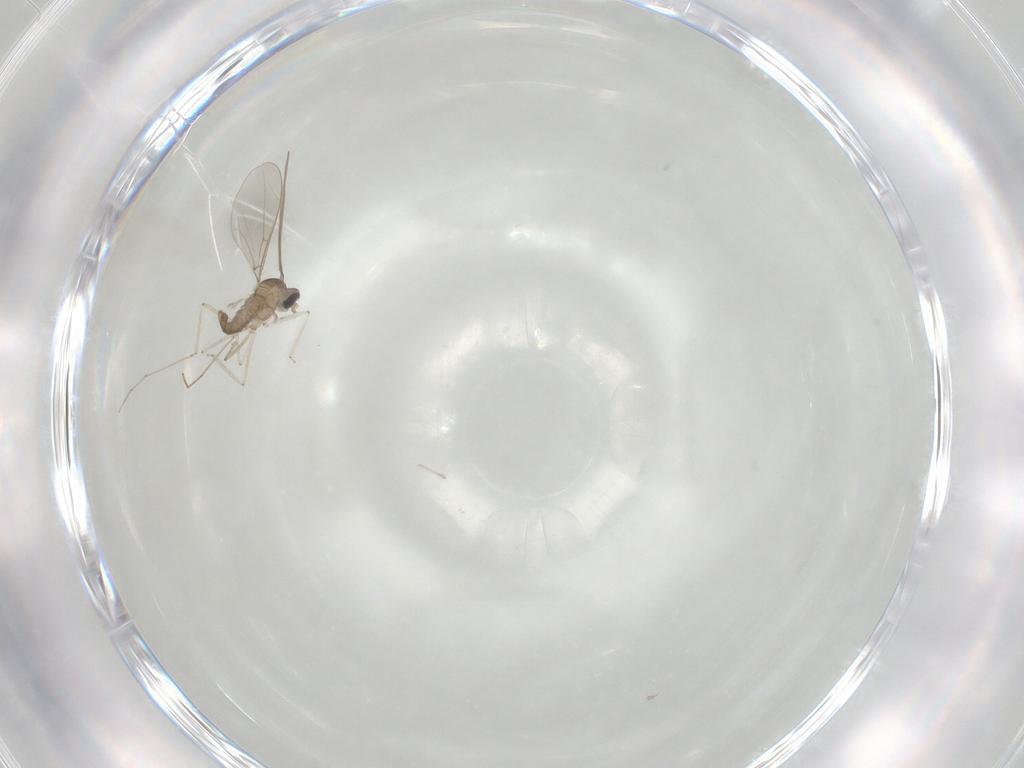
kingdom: Animalia
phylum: Arthropoda
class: Insecta
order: Diptera
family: Cecidomyiidae
